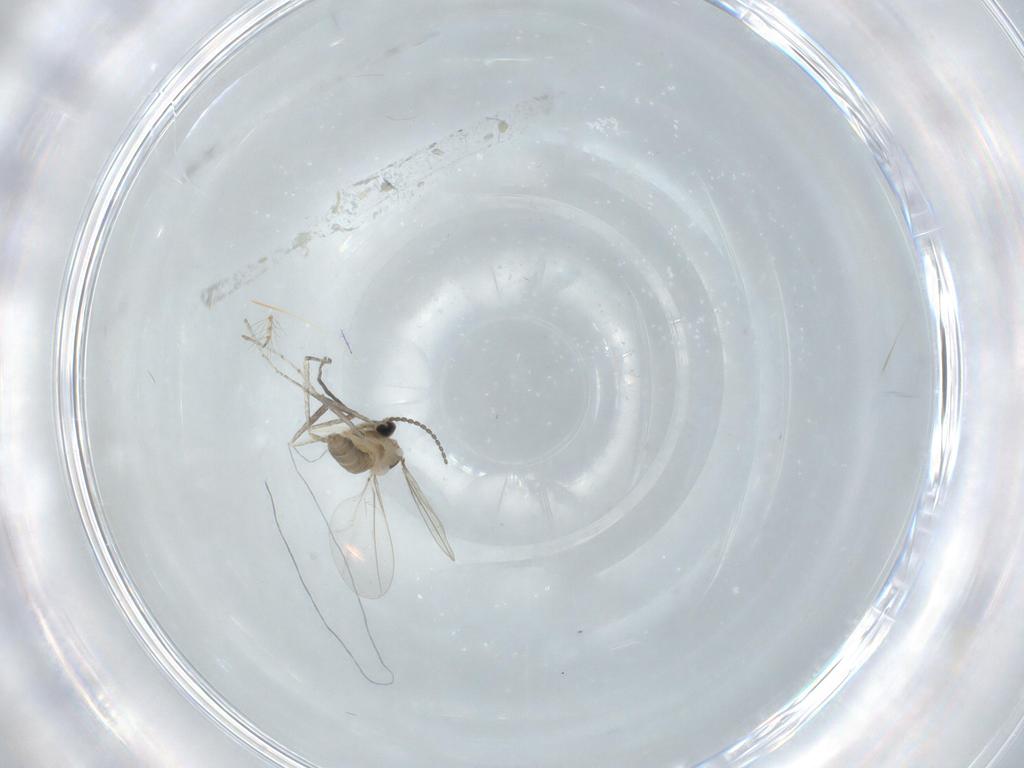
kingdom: Animalia
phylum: Arthropoda
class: Insecta
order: Diptera
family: Cecidomyiidae
